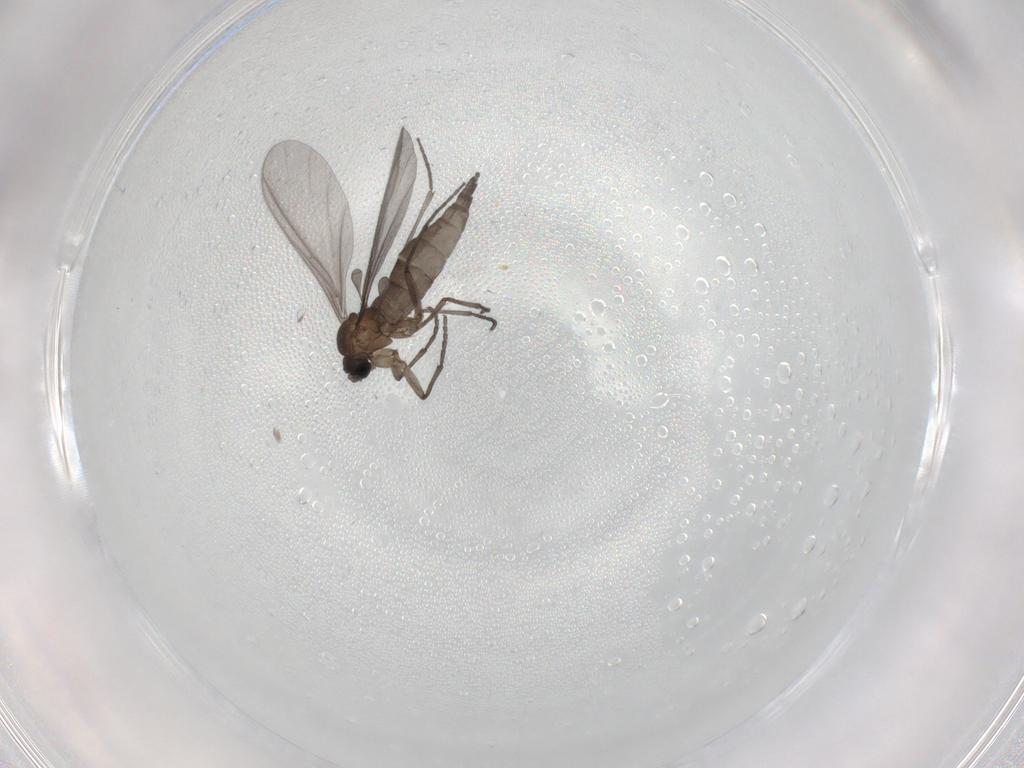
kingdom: Animalia
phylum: Arthropoda
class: Insecta
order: Diptera
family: Sciaridae
